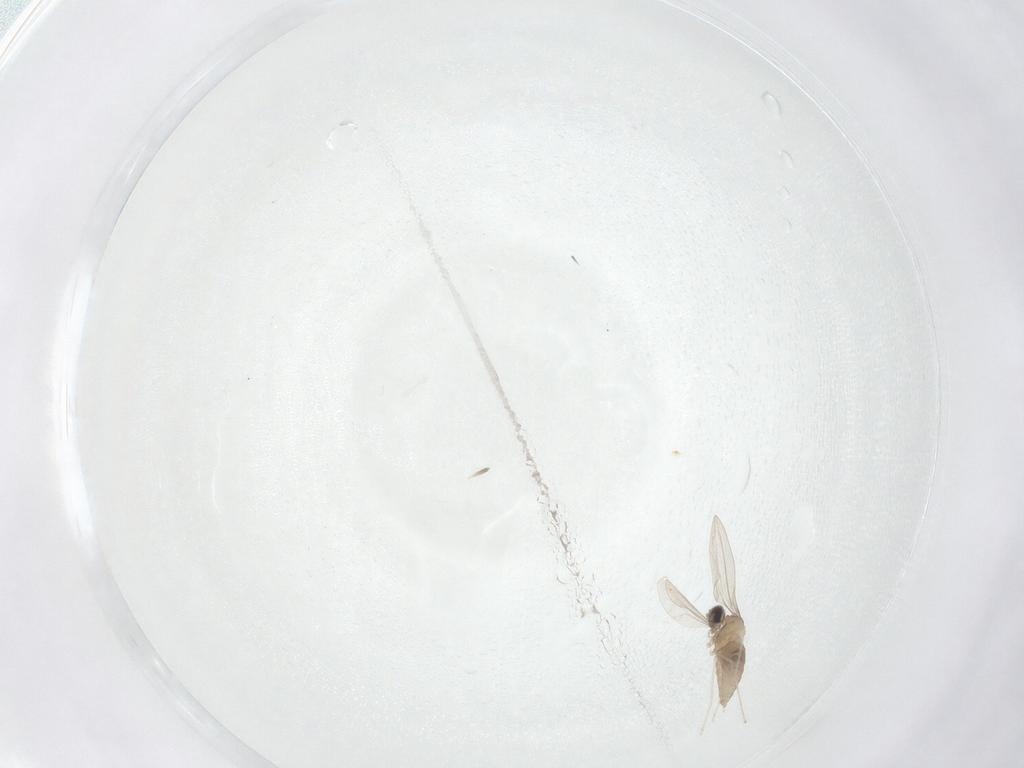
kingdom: Animalia
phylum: Arthropoda
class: Insecta
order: Diptera
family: Cecidomyiidae
